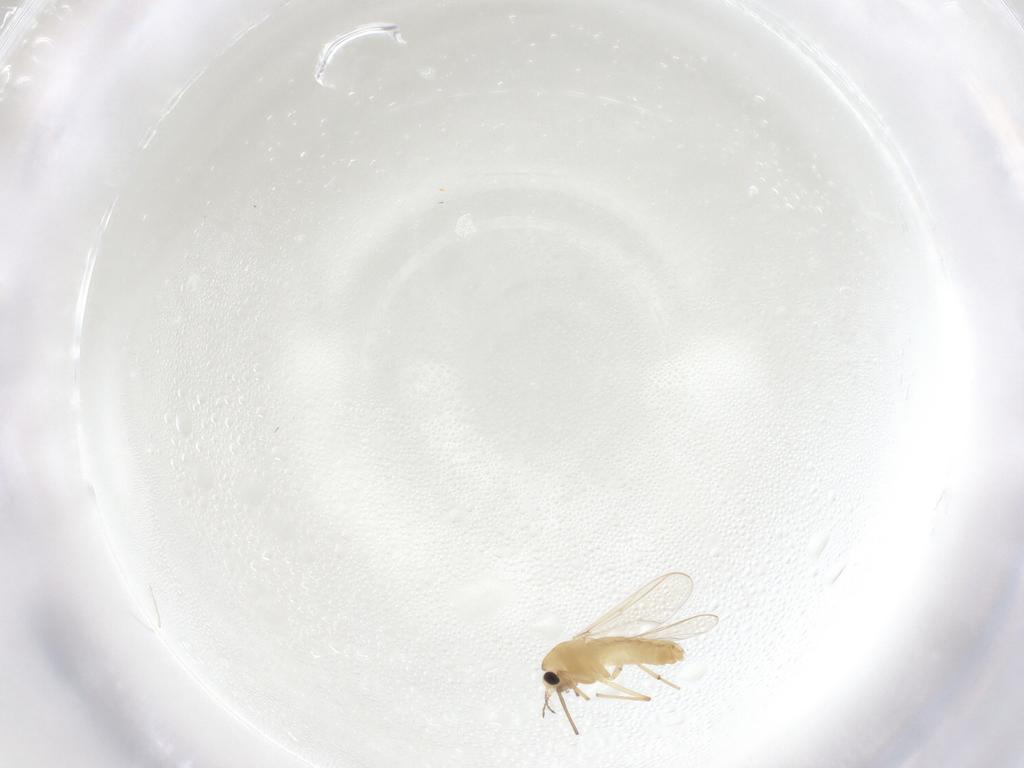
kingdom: Animalia
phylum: Arthropoda
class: Insecta
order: Diptera
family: Chironomidae
